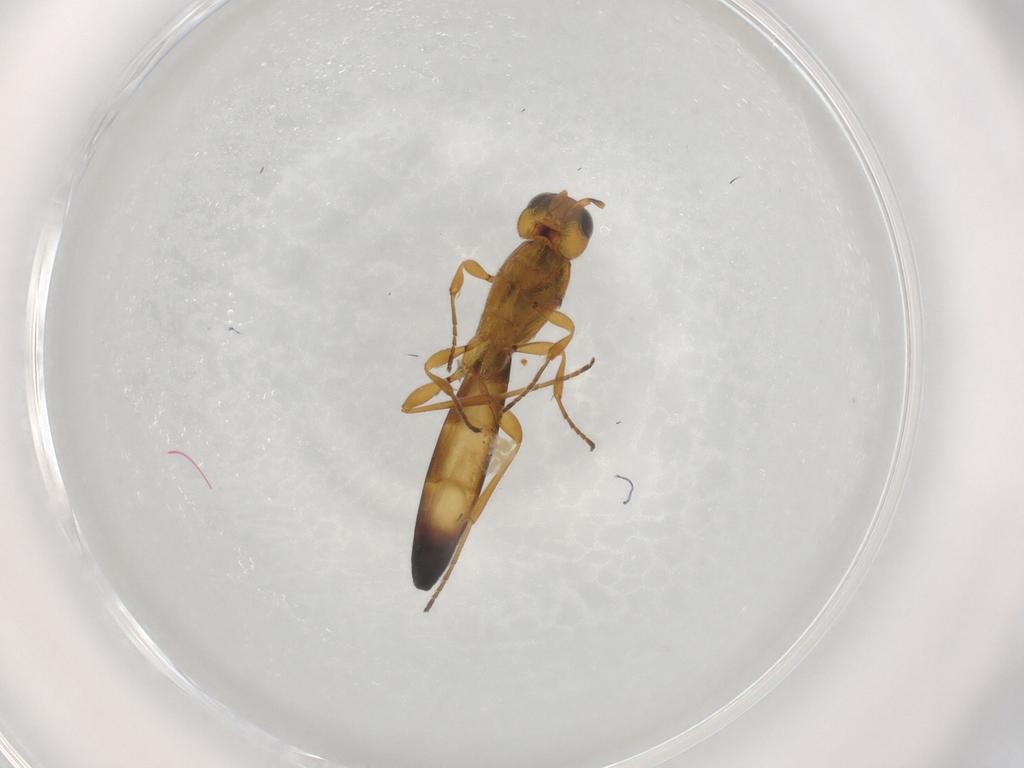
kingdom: Animalia
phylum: Arthropoda
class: Insecta
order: Hymenoptera
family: Scelionidae
